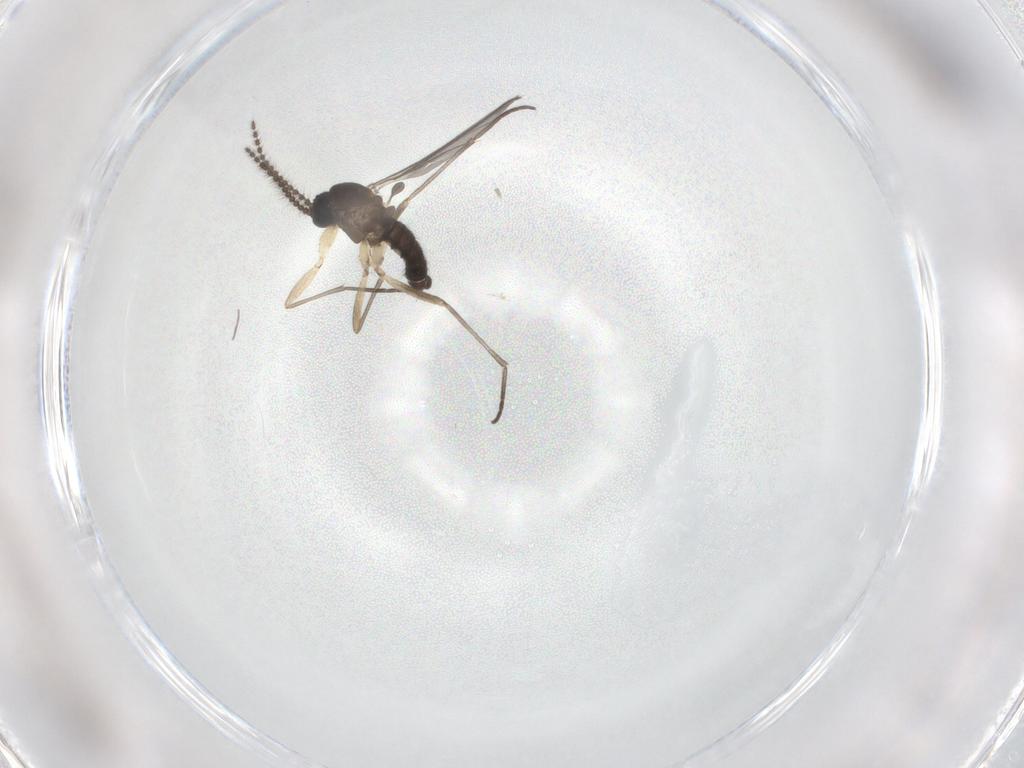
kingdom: Animalia
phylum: Arthropoda
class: Insecta
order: Diptera
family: Sciaridae
